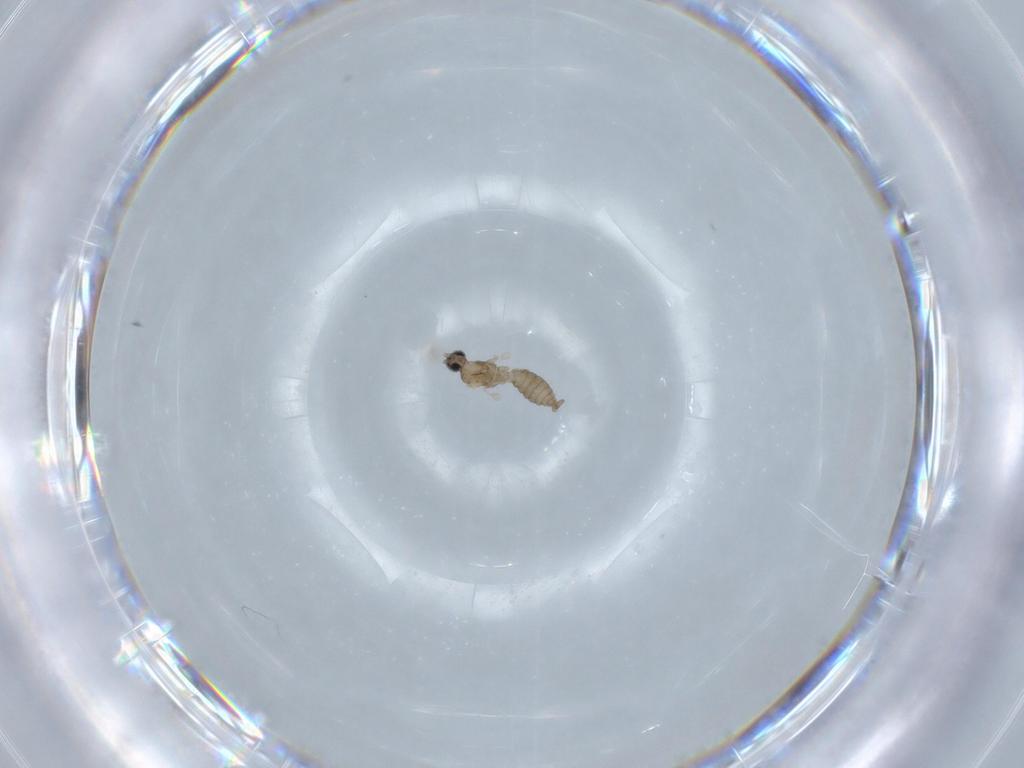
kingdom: Animalia
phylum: Arthropoda
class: Insecta
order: Diptera
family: Cecidomyiidae
